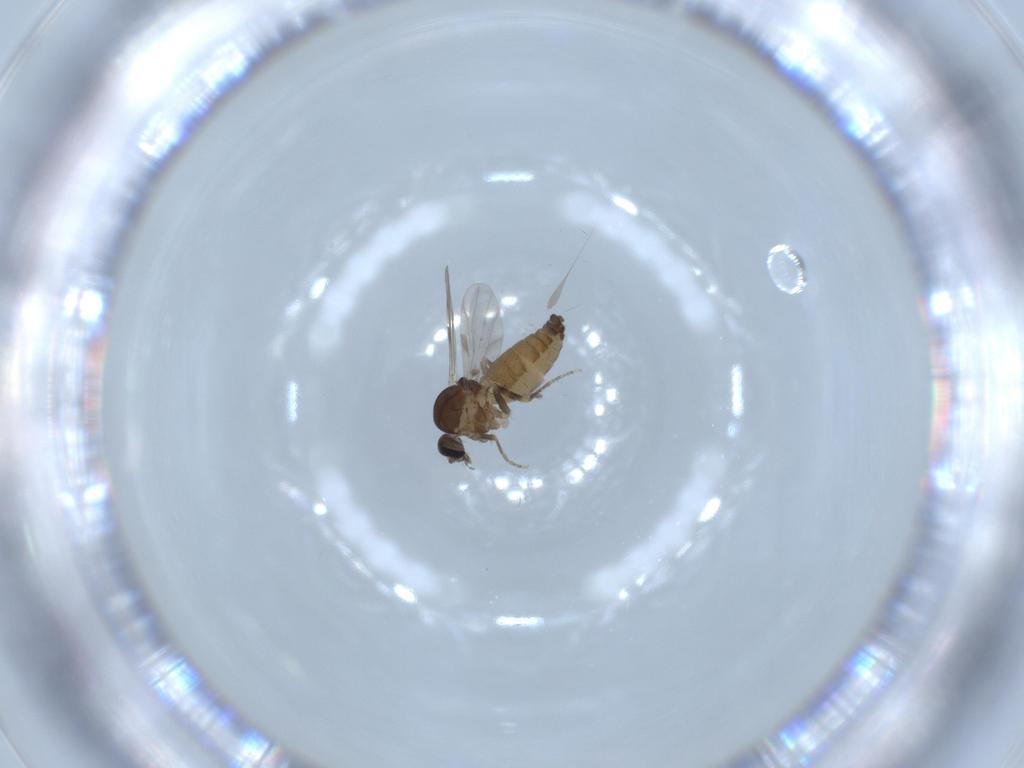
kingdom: Animalia
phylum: Arthropoda
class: Insecta
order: Diptera
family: Ceratopogonidae
